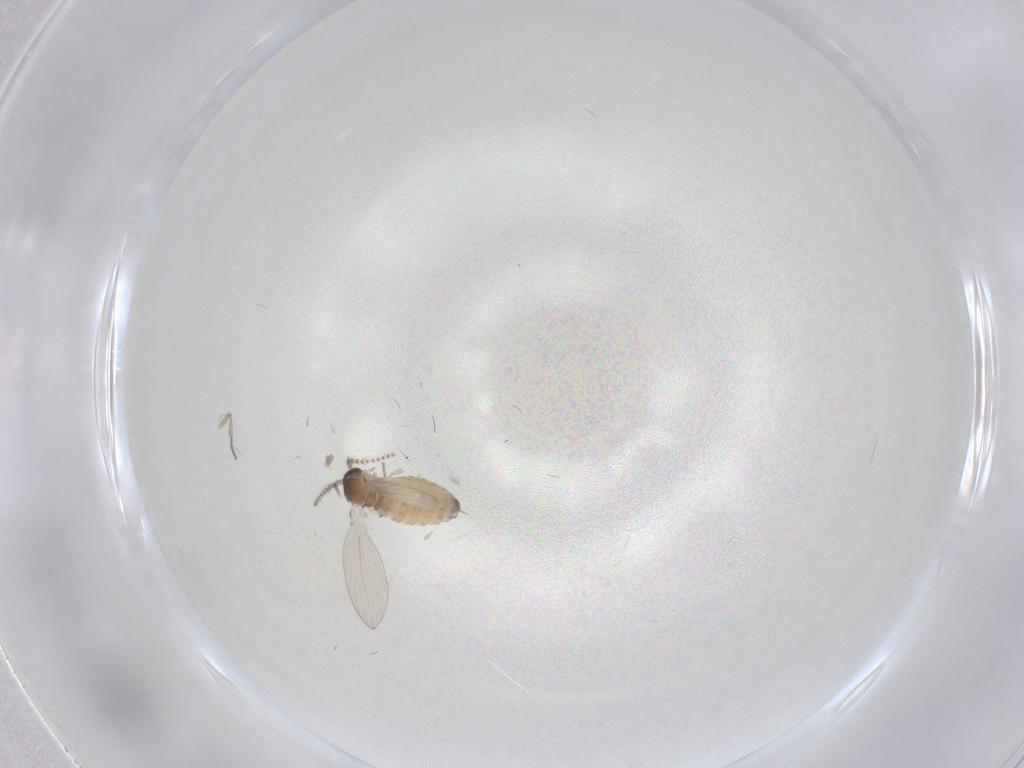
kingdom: Animalia
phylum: Arthropoda
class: Insecta
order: Diptera
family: Psychodidae
